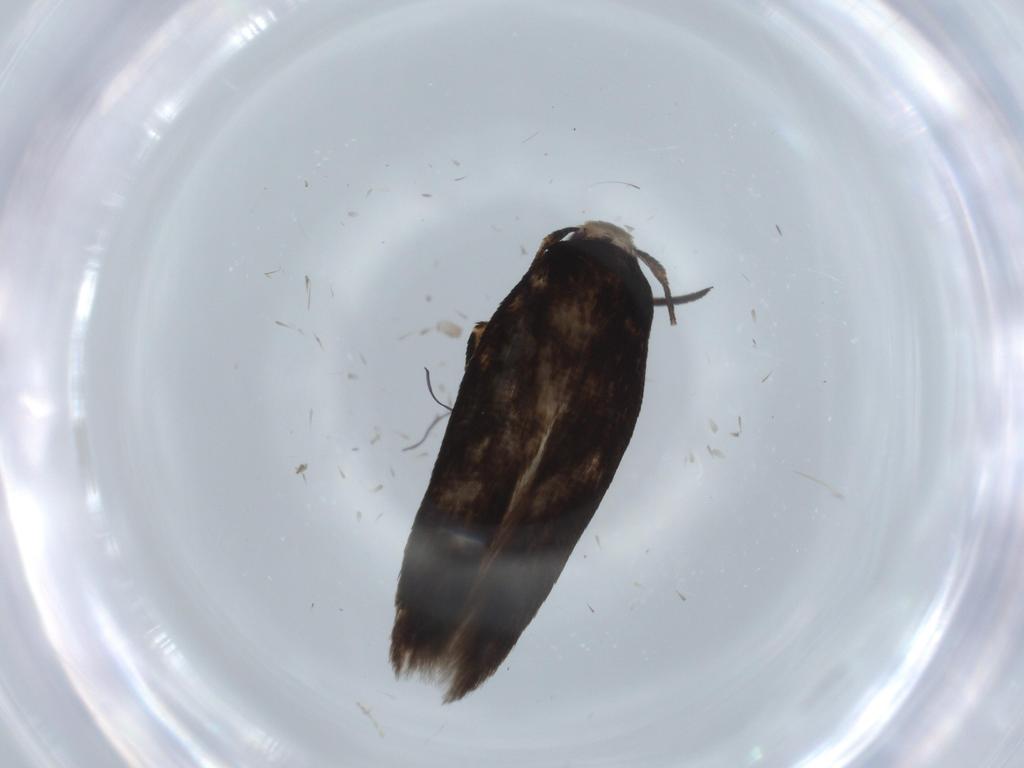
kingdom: Animalia
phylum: Arthropoda
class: Insecta
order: Lepidoptera
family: Gracillariidae
